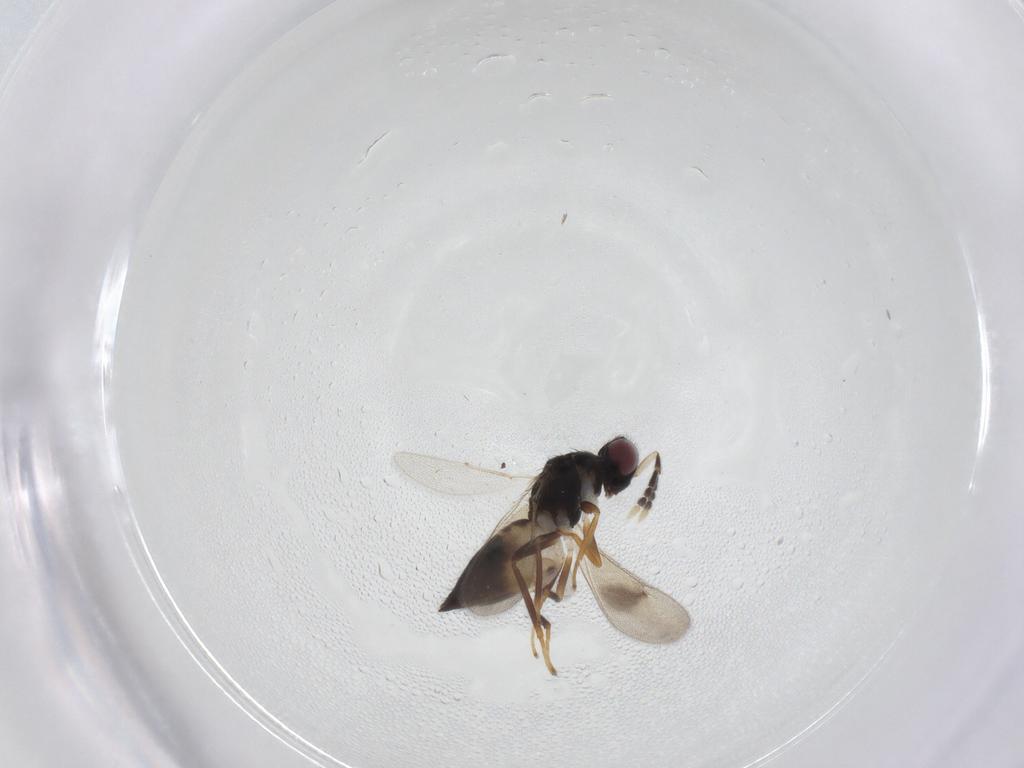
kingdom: Animalia
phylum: Arthropoda
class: Insecta
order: Hymenoptera
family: Eulophidae
